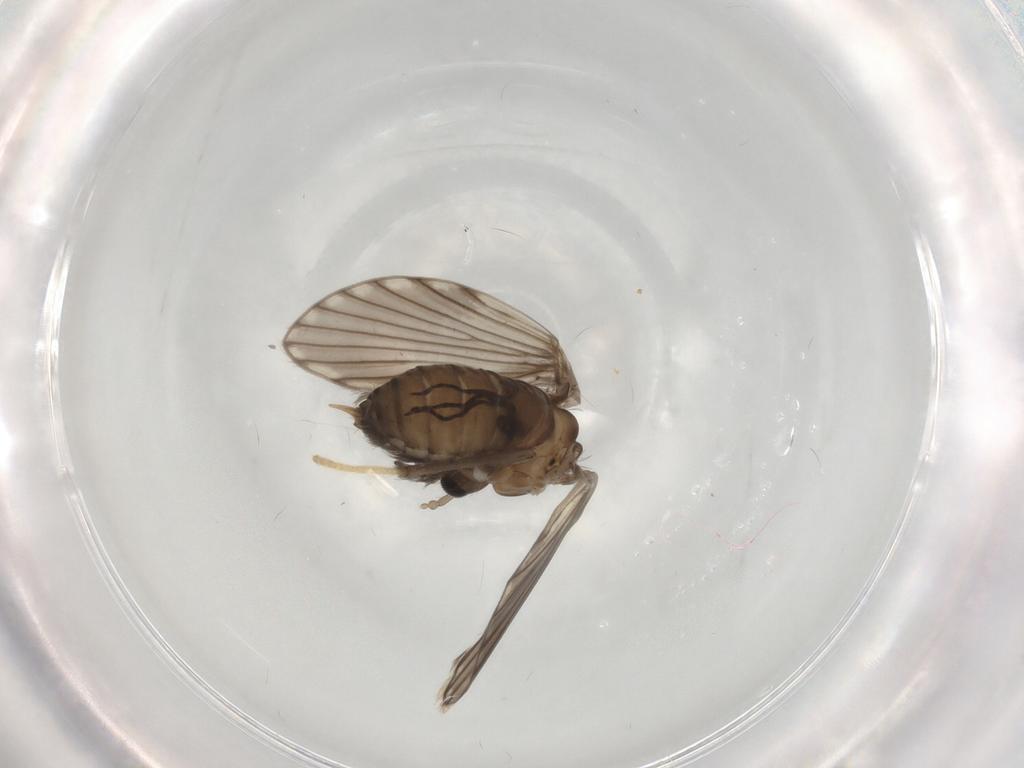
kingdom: Animalia
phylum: Arthropoda
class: Insecta
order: Diptera
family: Psychodidae
